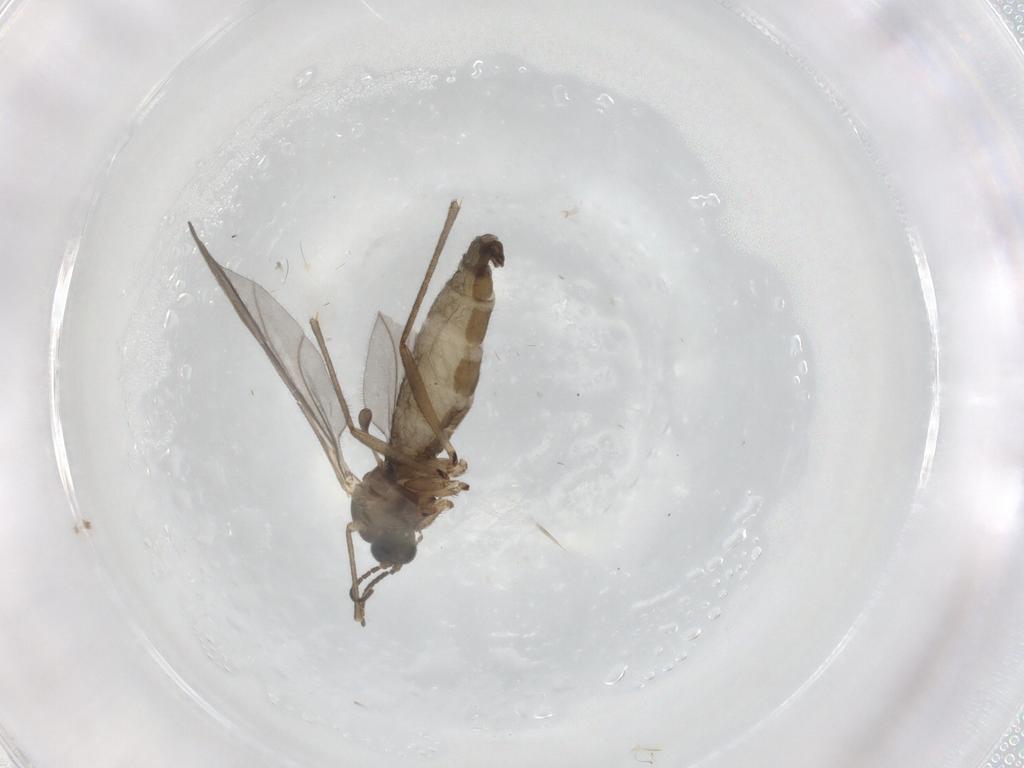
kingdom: Animalia
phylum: Arthropoda
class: Insecta
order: Diptera
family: Sciaridae
